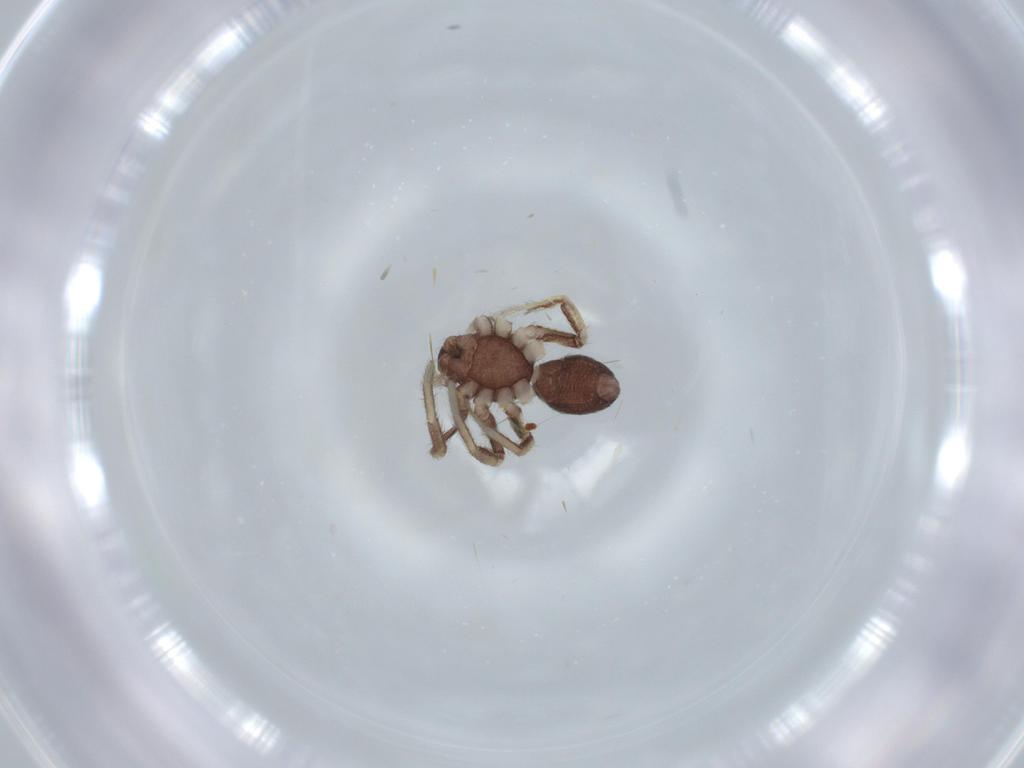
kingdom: Animalia
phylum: Arthropoda
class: Arachnida
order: Araneae
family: Corinnidae
